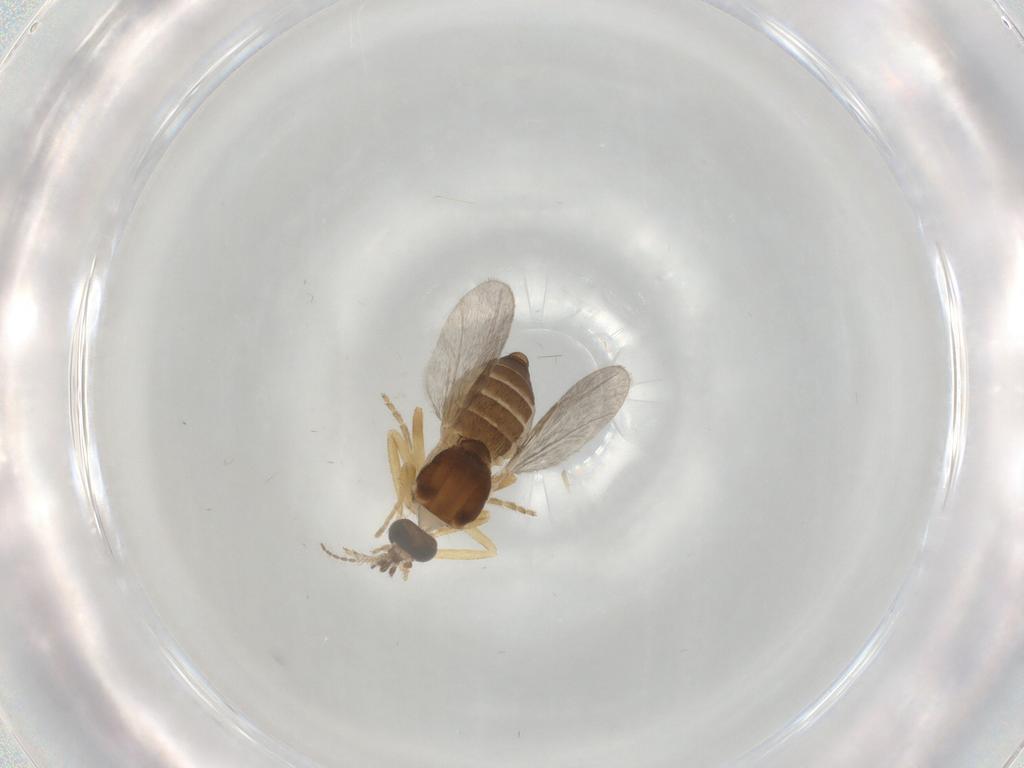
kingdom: Animalia
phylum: Arthropoda
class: Insecta
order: Diptera
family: Ceratopogonidae
